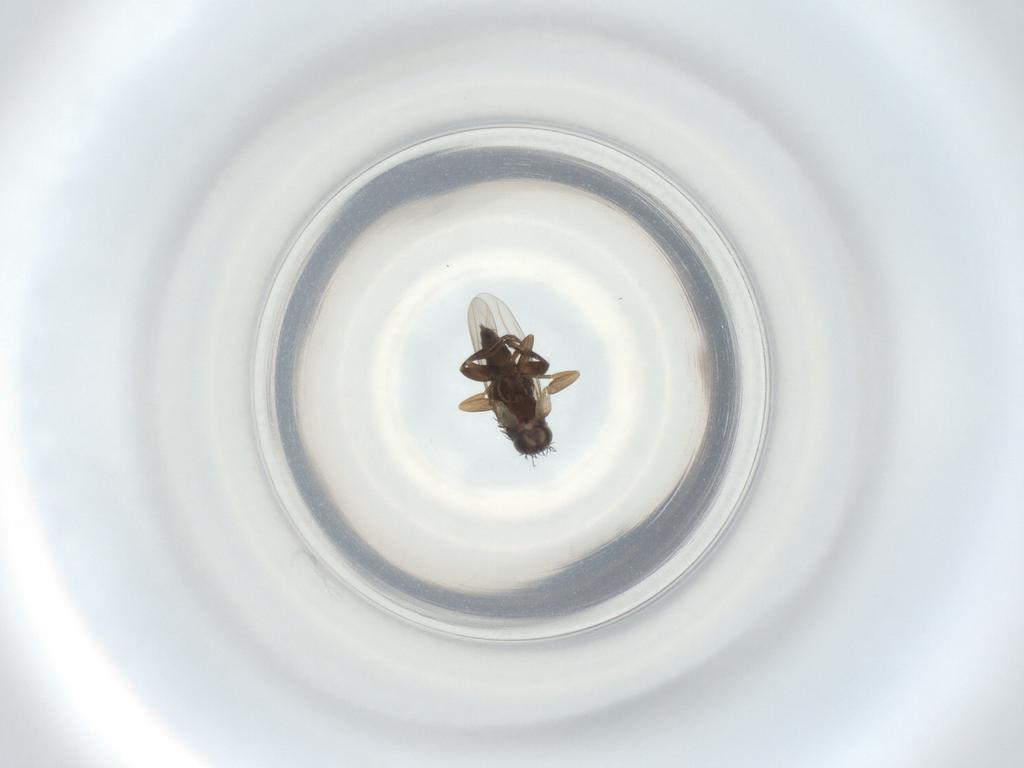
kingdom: Animalia
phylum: Arthropoda
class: Insecta
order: Diptera
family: Phoridae
